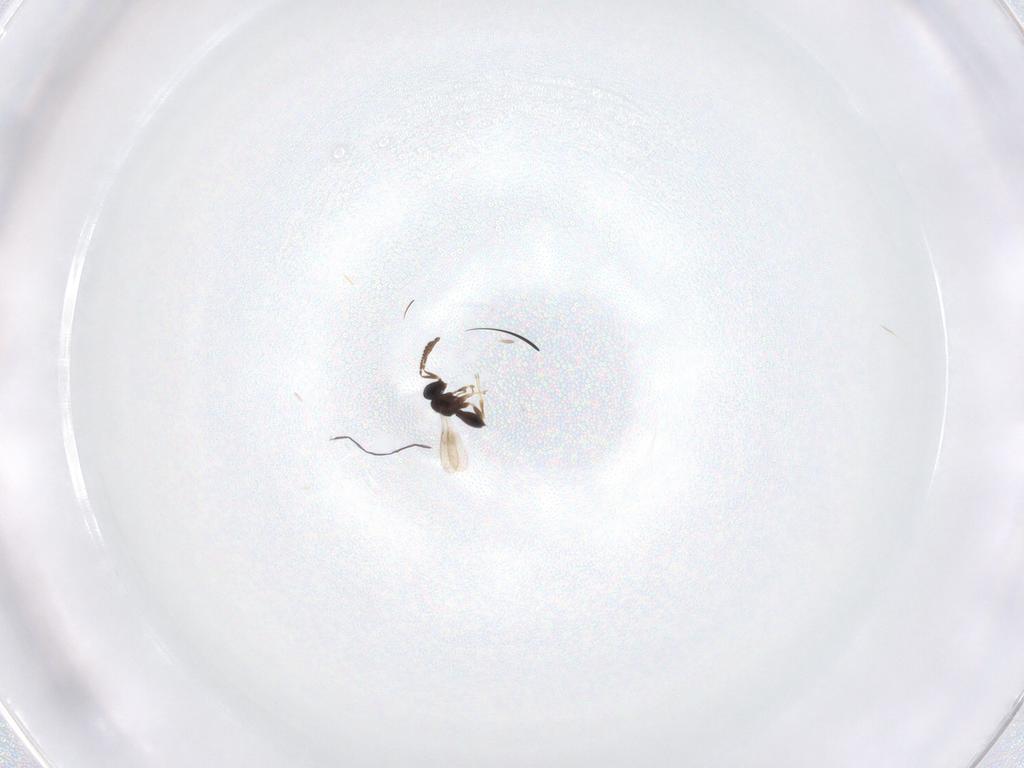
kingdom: Animalia
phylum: Arthropoda
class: Insecta
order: Hymenoptera
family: Scelionidae
